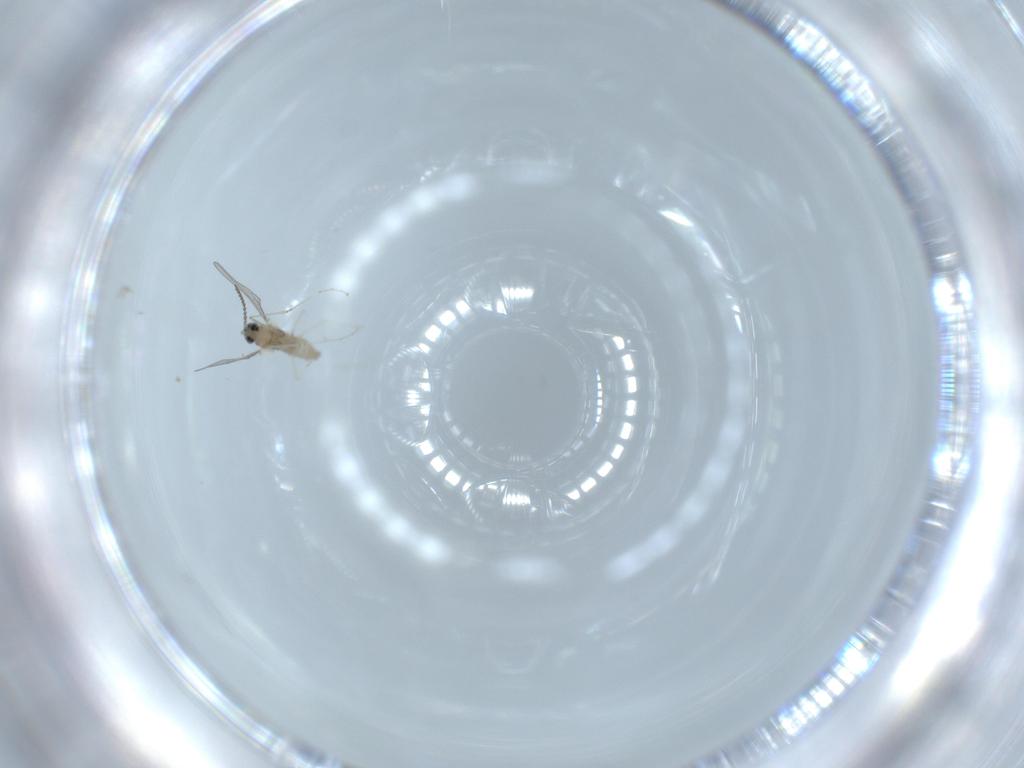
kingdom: Animalia
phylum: Arthropoda
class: Insecta
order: Diptera
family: Cecidomyiidae
